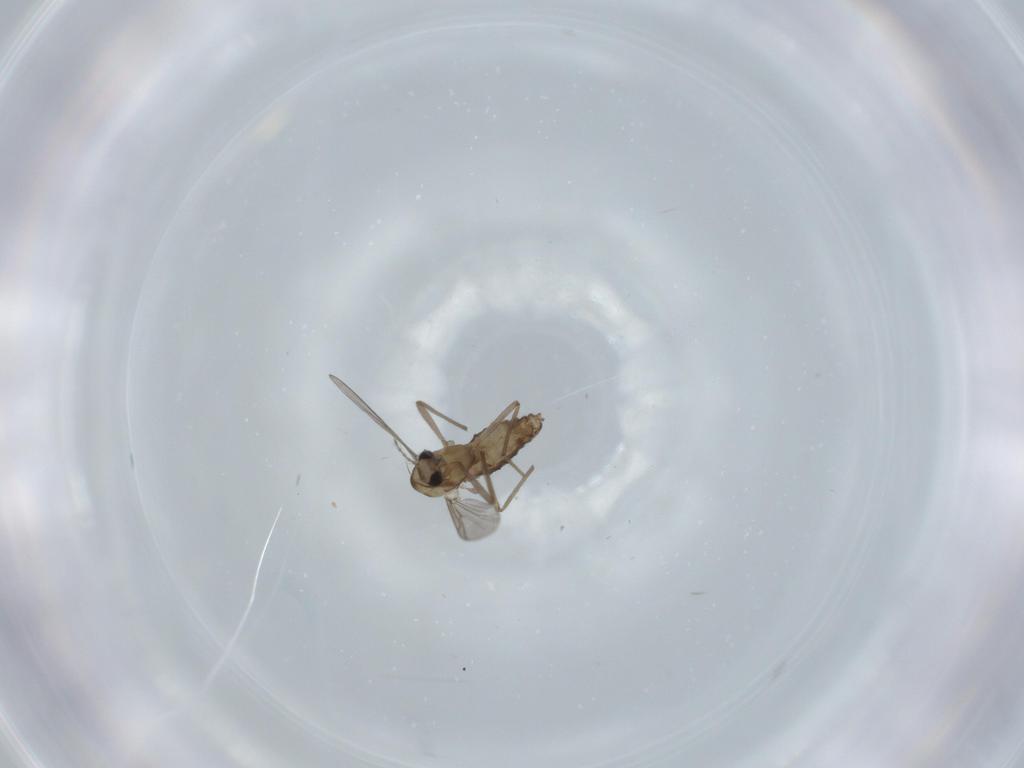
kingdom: Animalia
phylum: Arthropoda
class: Insecta
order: Diptera
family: Chironomidae
